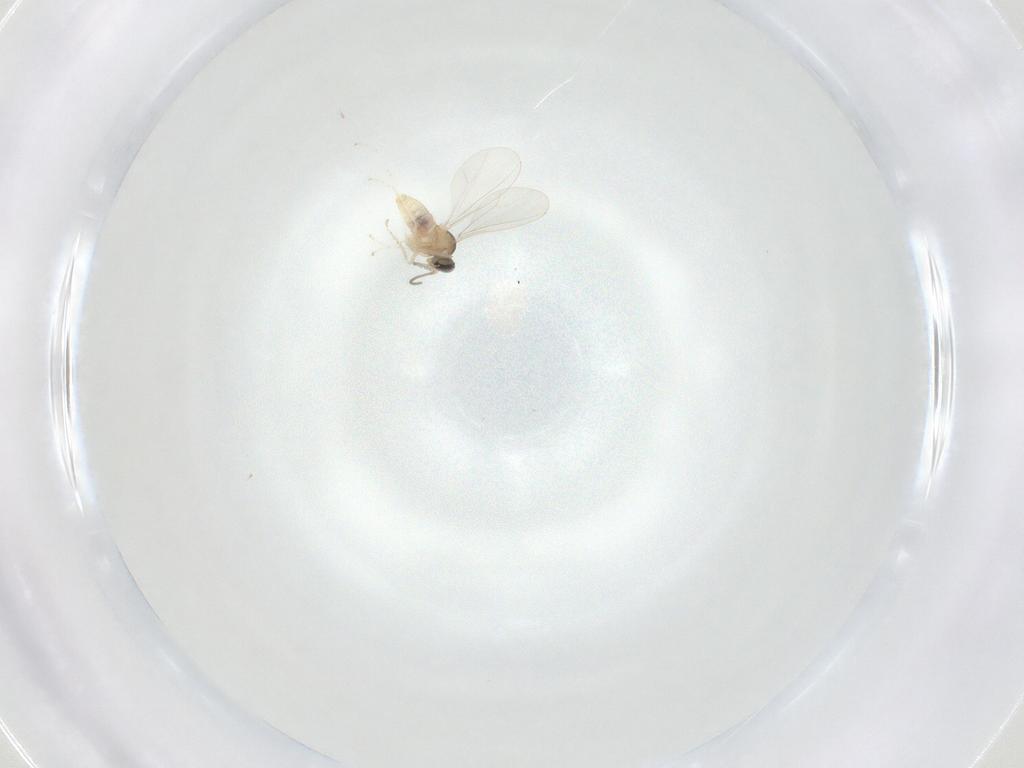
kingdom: Animalia
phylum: Arthropoda
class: Insecta
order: Diptera
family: Cecidomyiidae
